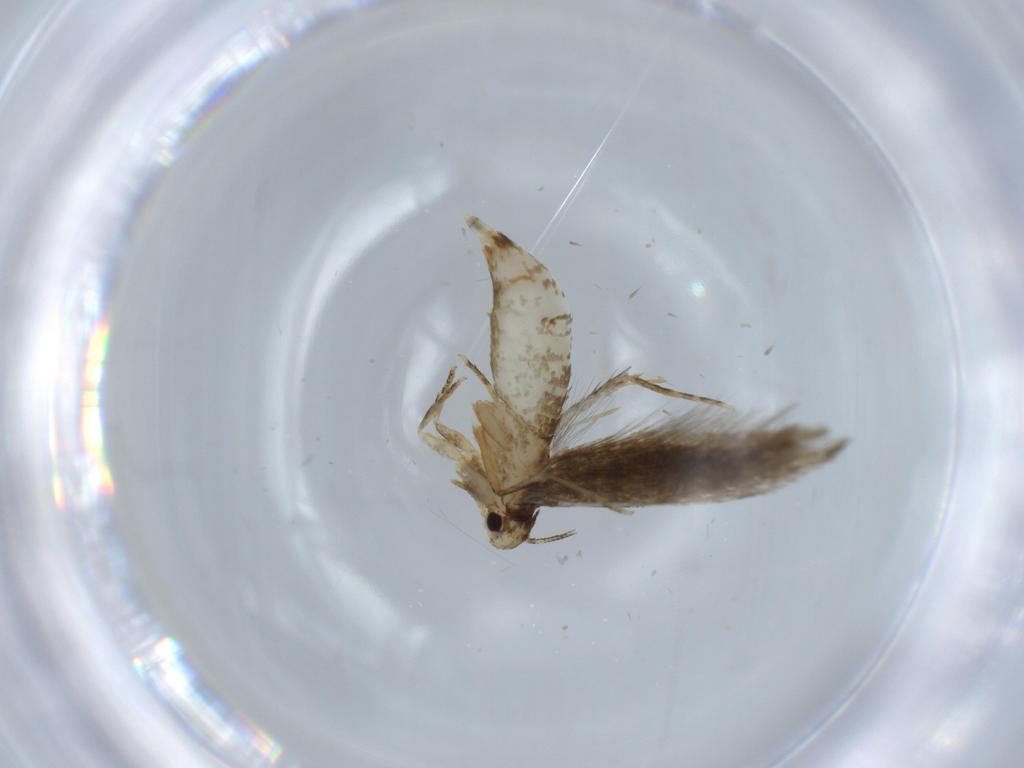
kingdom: Animalia
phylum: Arthropoda
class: Insecta
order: Lepidoptera
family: Tineidae
